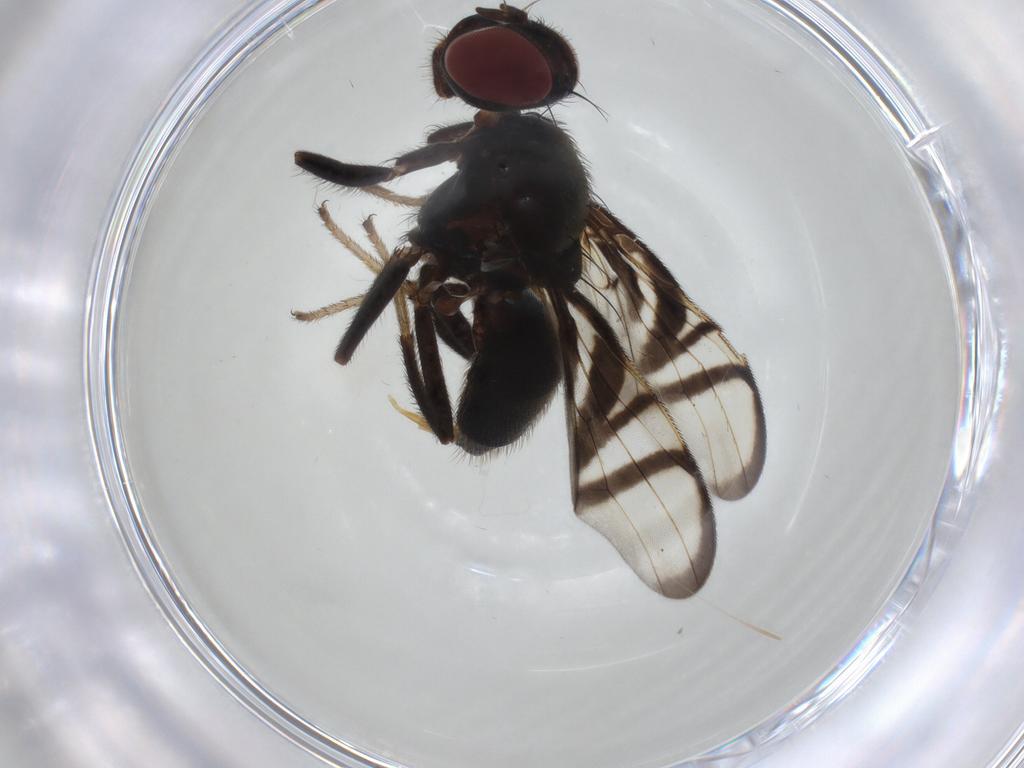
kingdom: Animalia
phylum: Arthropoda
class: Insecta
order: Diptera
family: Platystomatidae
